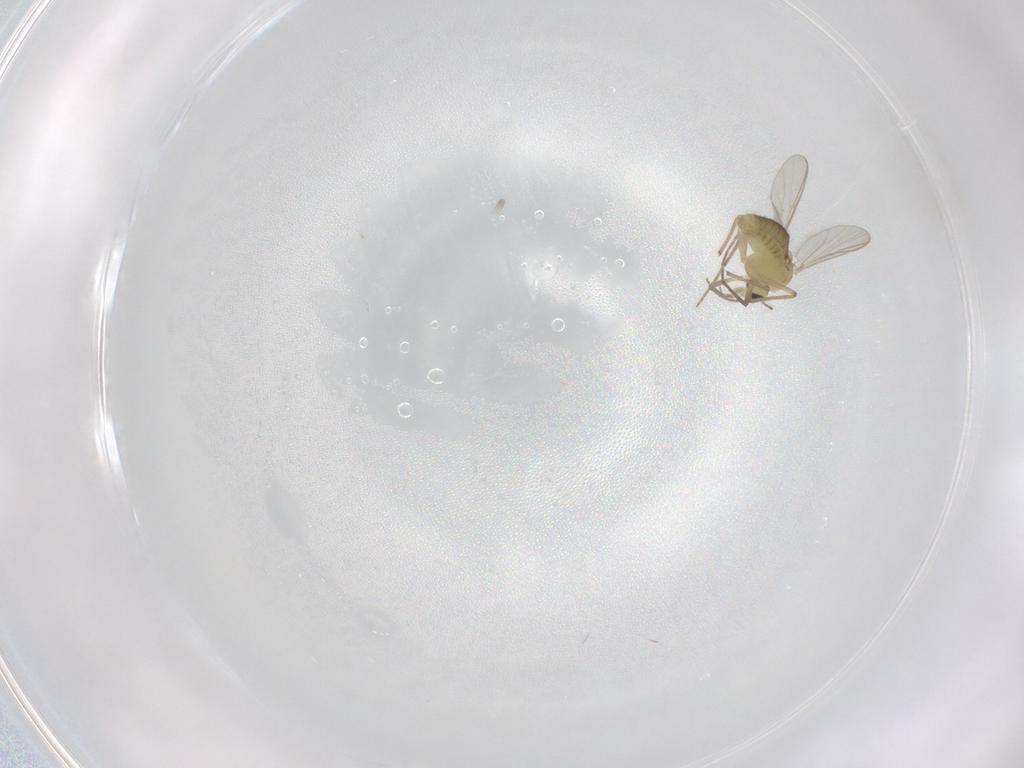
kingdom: Animalia
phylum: Arthropoda
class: Insecta
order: Diptera
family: Chironomidae
